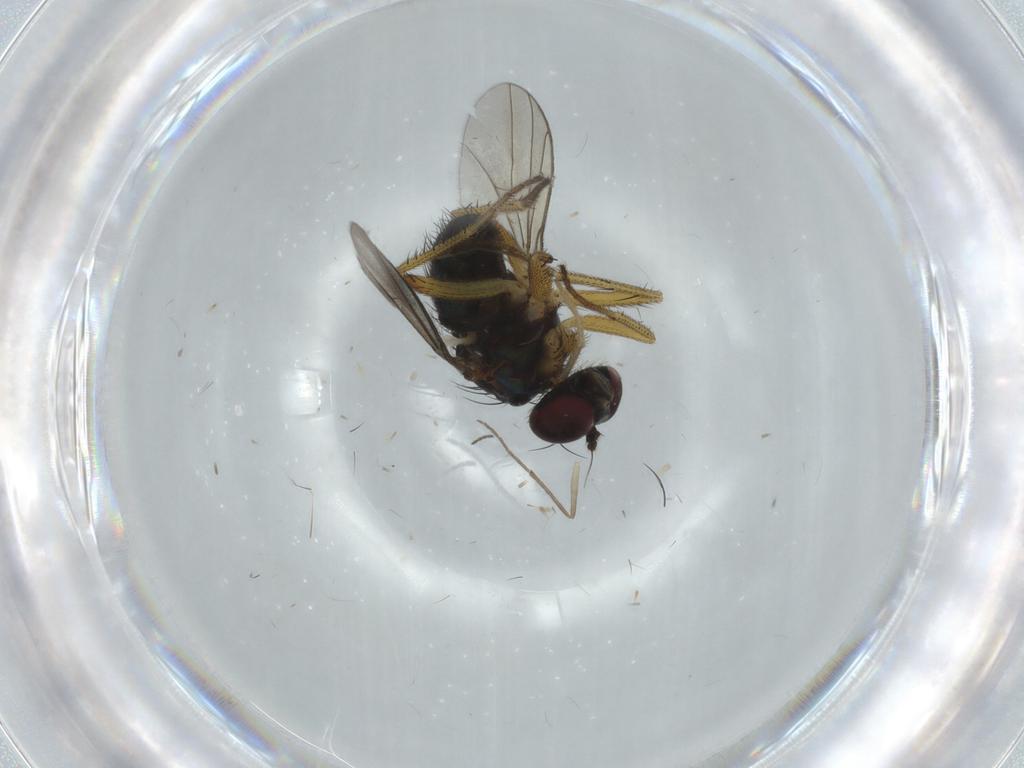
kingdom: Animalia
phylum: Arthropoda
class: Insecta
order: Diptera
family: Dolichopodidae
